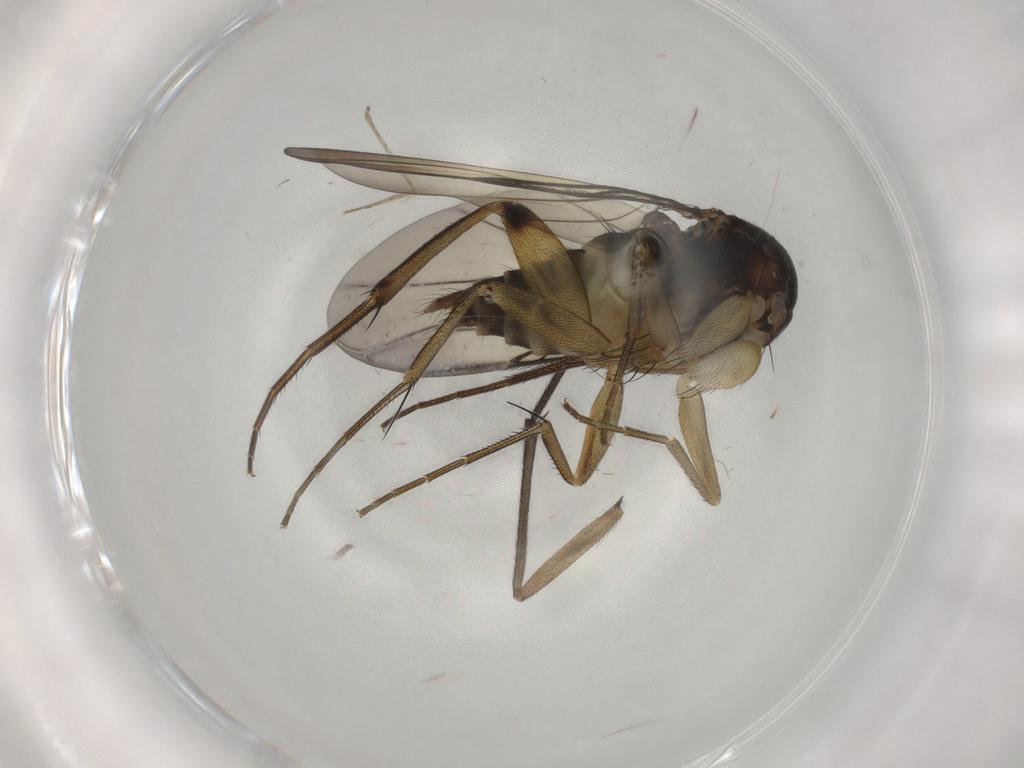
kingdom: Animalia
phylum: Arthropoda
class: Insecta
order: Diptera
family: Phoridae
